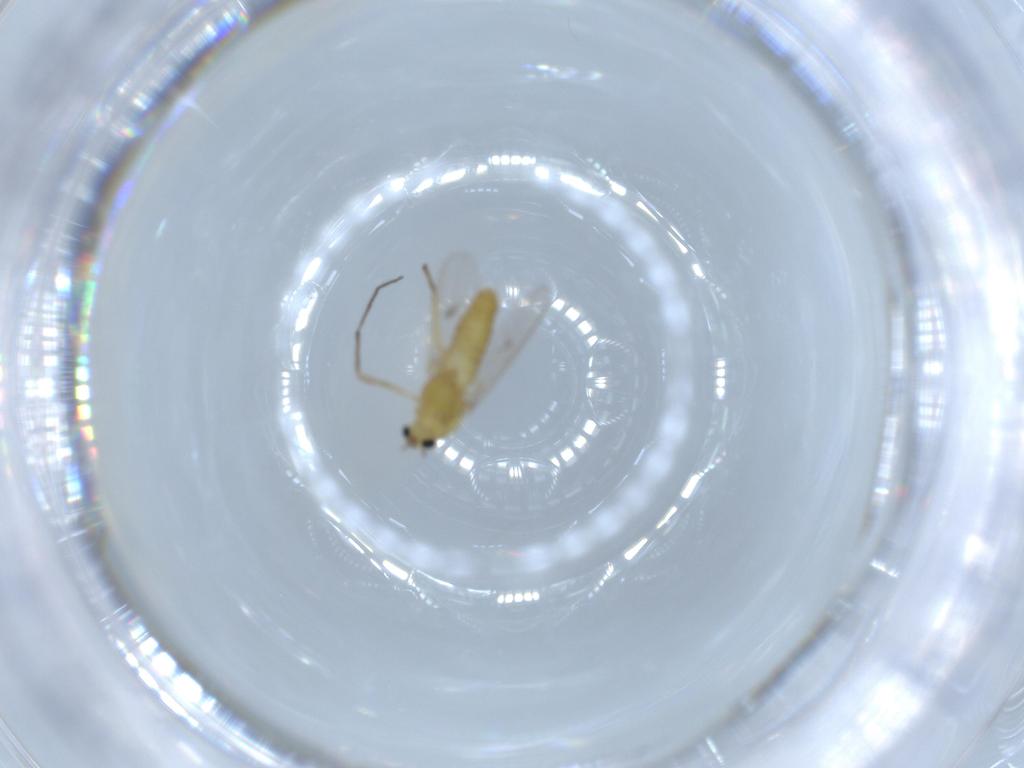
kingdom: Animalia
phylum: Arthropoda
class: Insecta
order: Diptera
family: Chironomidae
